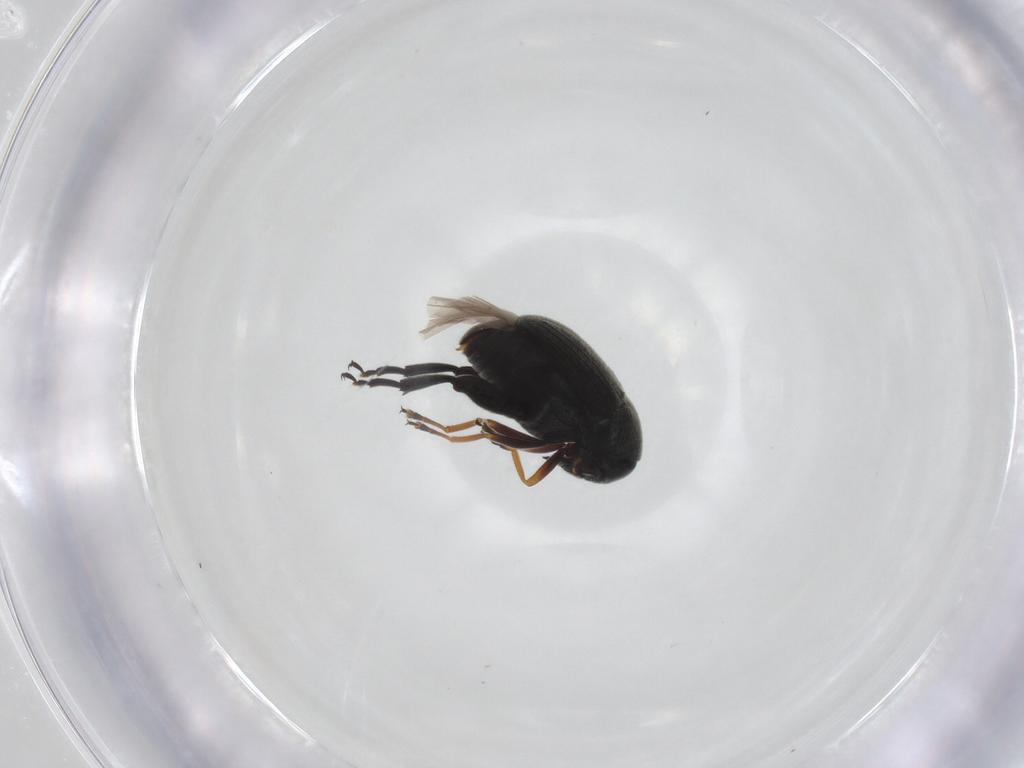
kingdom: Animalia
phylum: Arthropoda
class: Insecta
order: Coleoptera
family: Chrysomelidae
